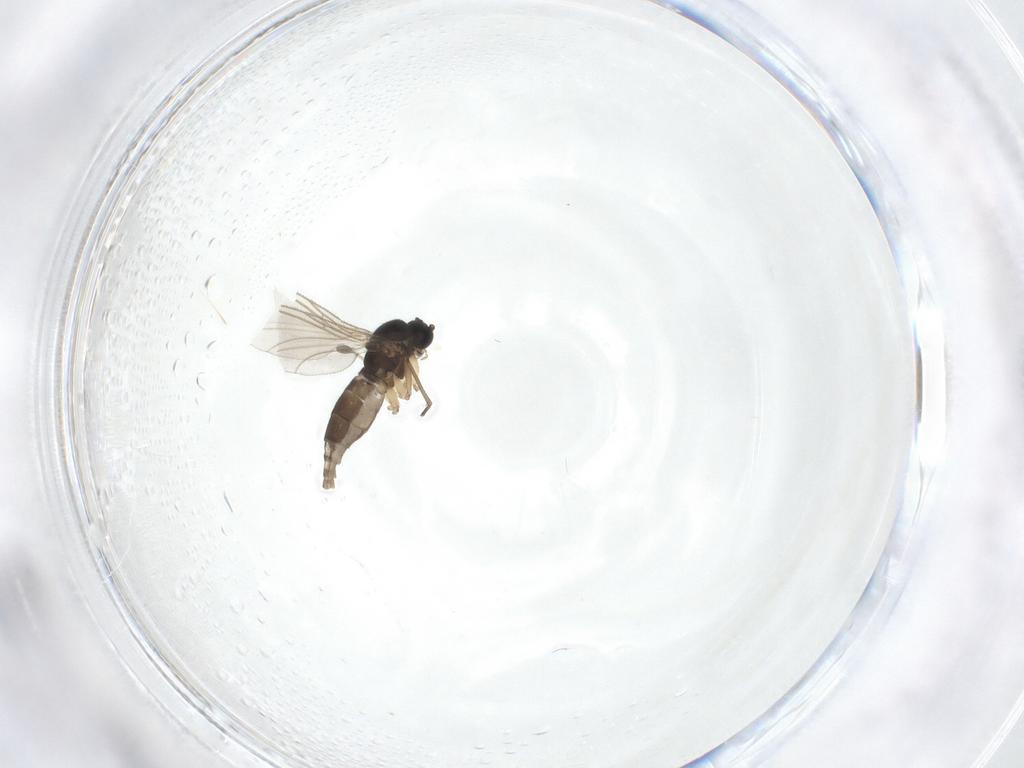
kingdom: Animalia
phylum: Arthropoda
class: Insecta
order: Diptera
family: Sciaridae
